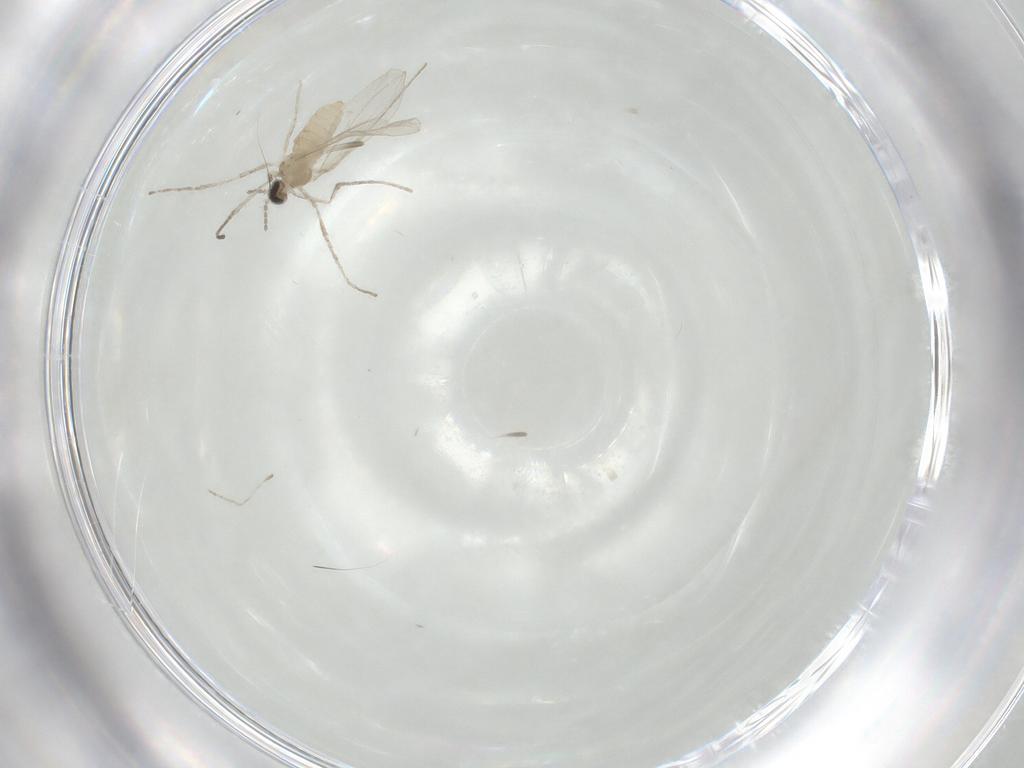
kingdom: Animalia
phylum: Arthropoda
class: Insecta
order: Diptera
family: Cecidomyiidae
